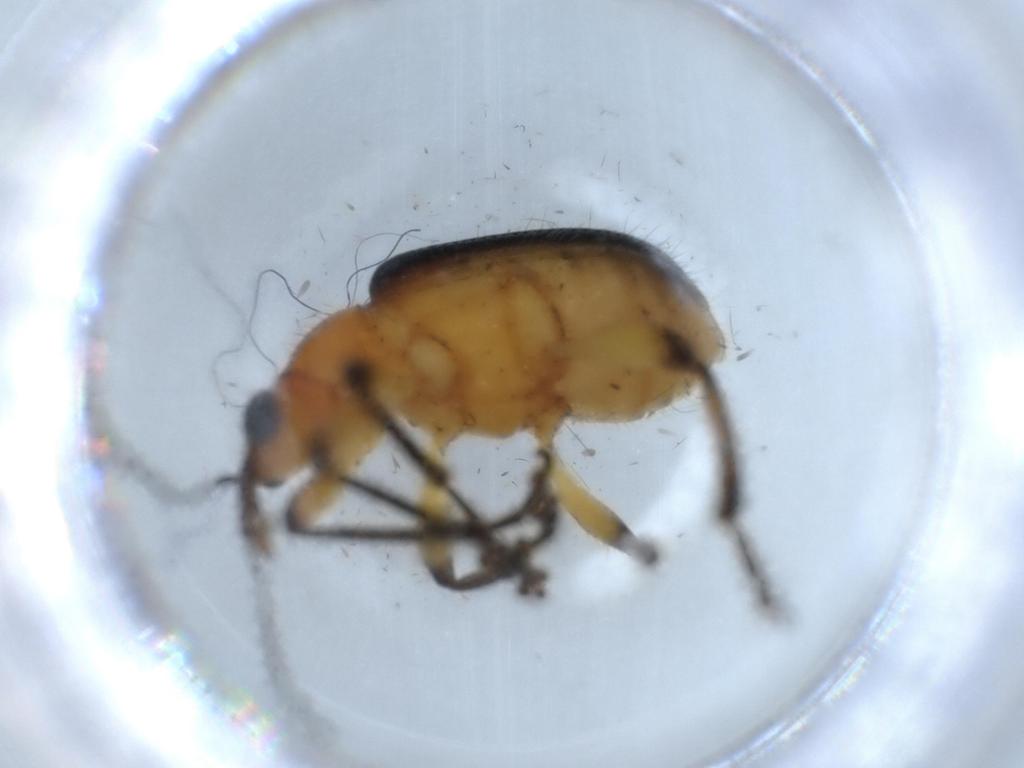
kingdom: Animalia
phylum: Arthropoda
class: Insecta
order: Coleoptera
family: Attelabidae
